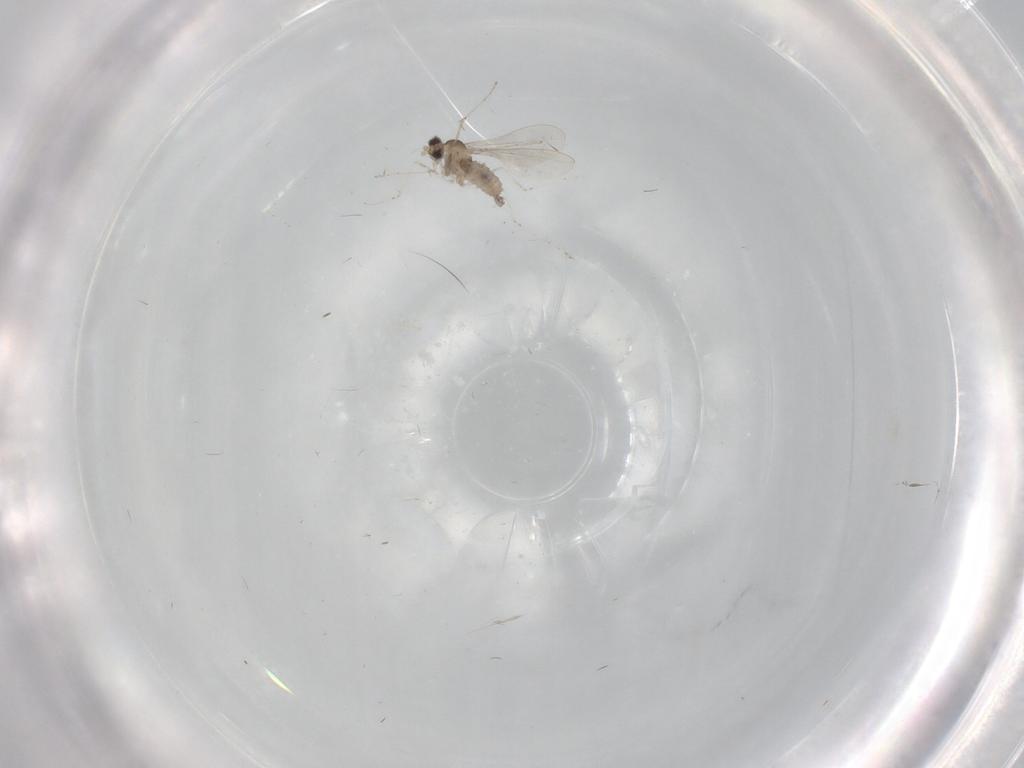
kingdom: Animalia
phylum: Arthropoda
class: Insecta
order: Diptera
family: Cecidomyiidae
